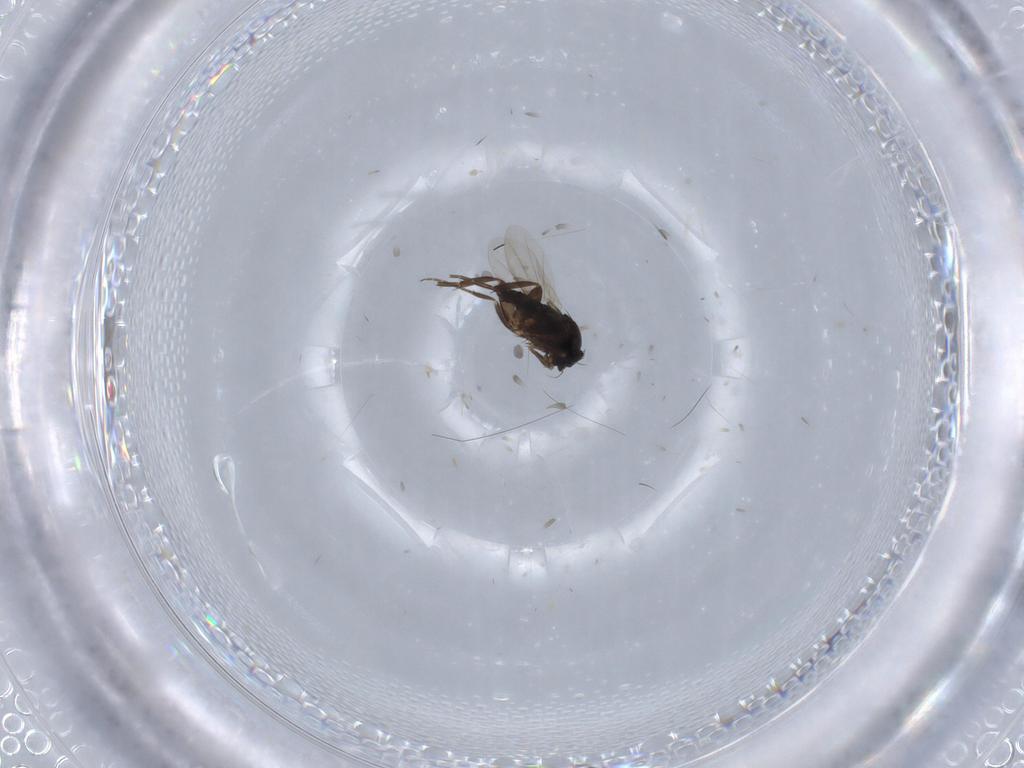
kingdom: Animalia
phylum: Arthropoda
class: Insecta
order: Diptera
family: Phoridae
